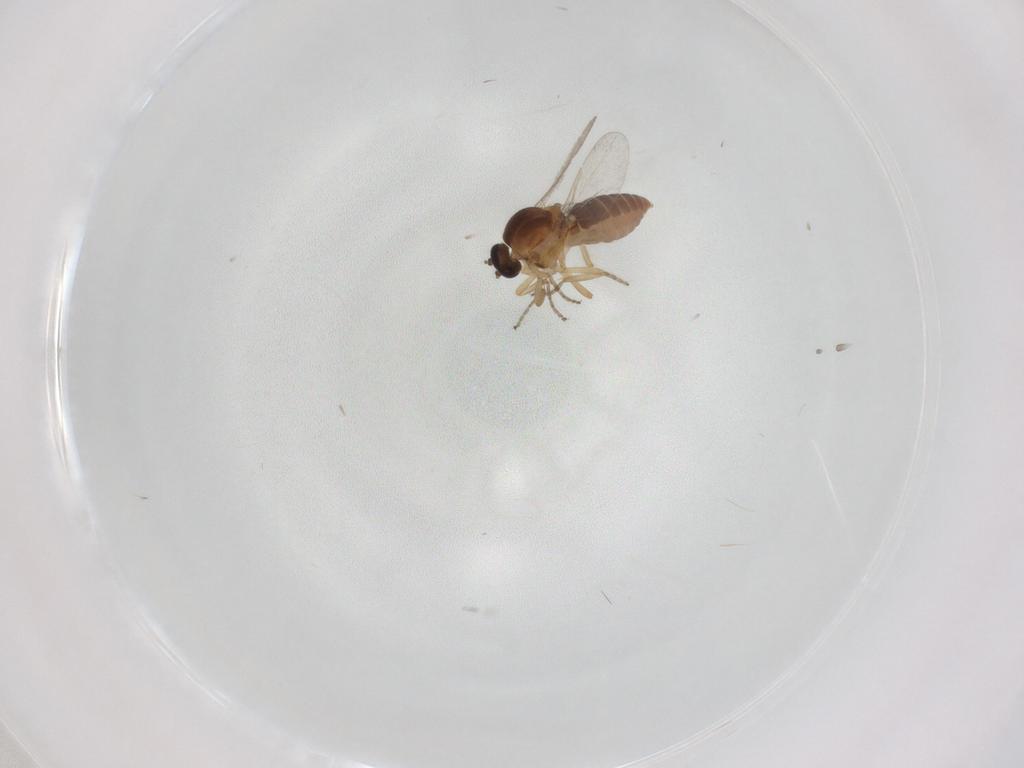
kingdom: Animalia
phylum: Arthropoda
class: Insecta
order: Diptera
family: Ceratopogonidae
